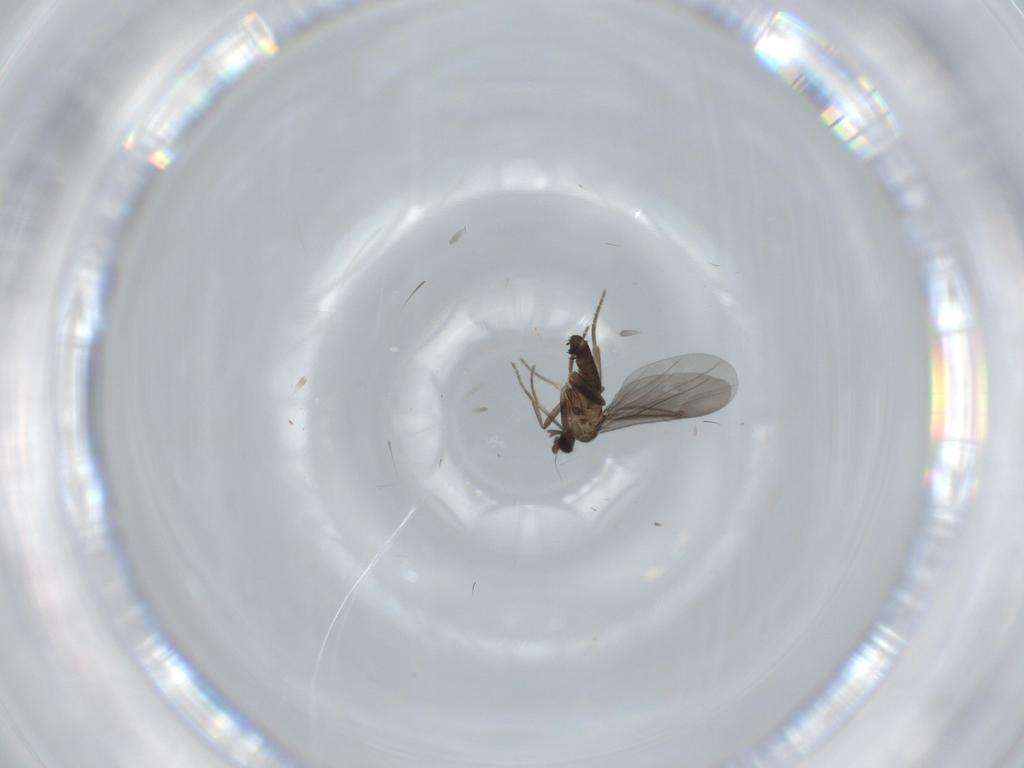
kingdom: Animalia
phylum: Arthropoda
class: Insecta
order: Diptera
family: Phoridae
